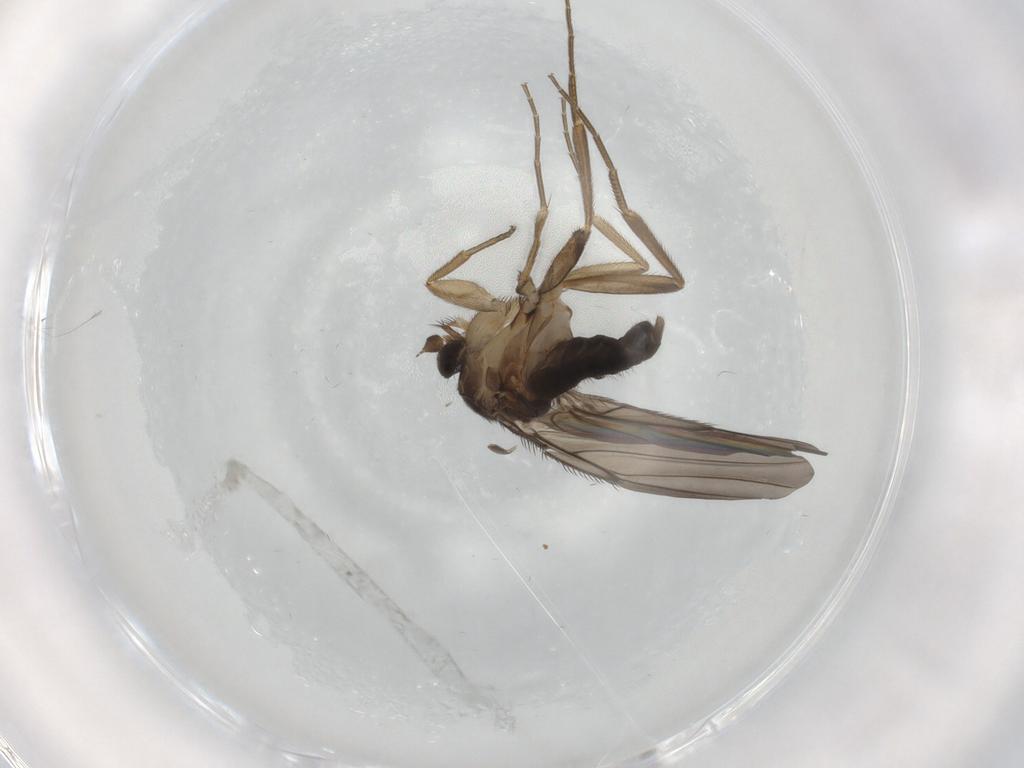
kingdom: Animalia
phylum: Arthropoda
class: Insecta
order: Diptera
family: Phoridae
